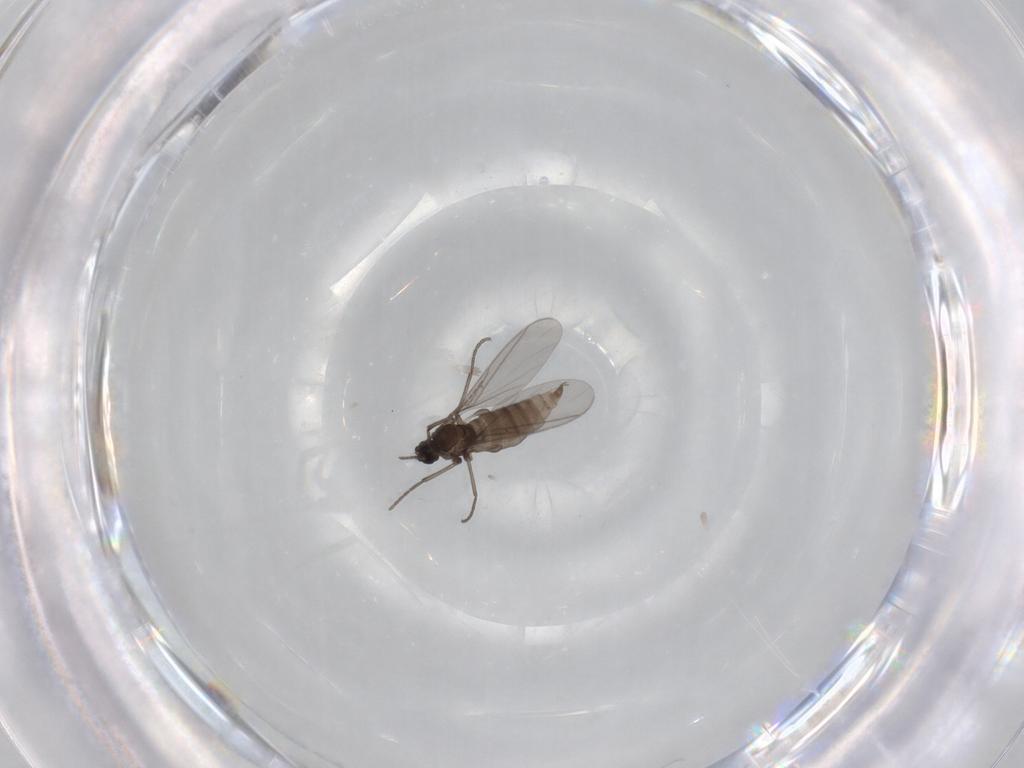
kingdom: Animalia
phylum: Arthropoda
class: Insecta
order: Diptera
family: Sciaridae
